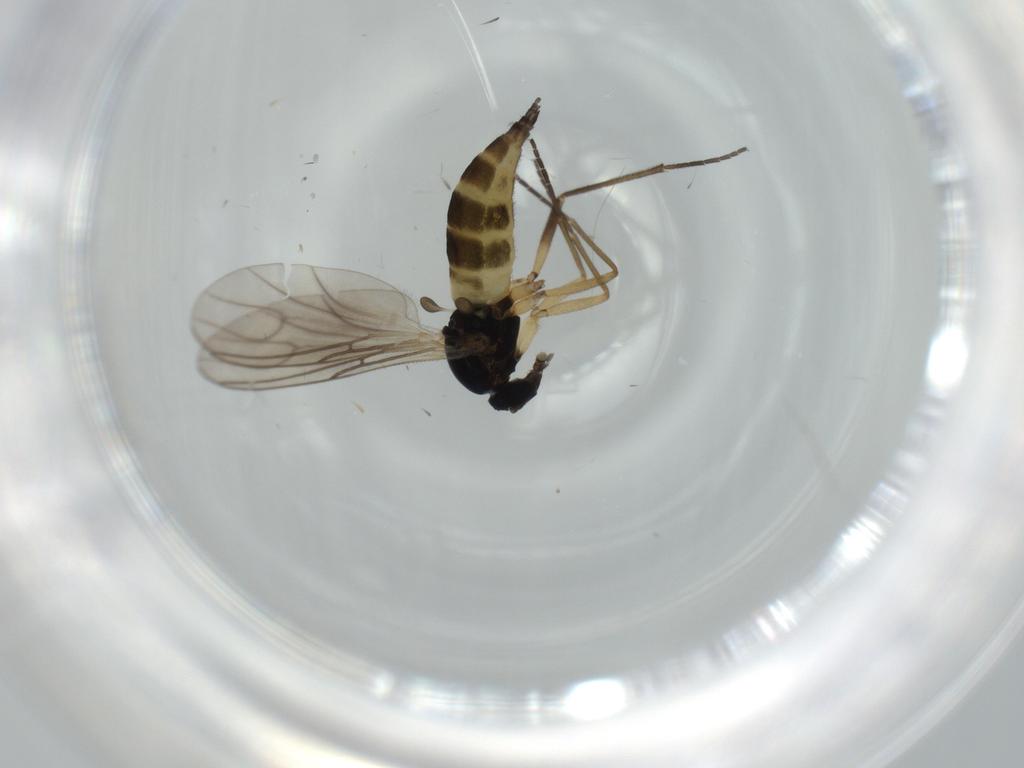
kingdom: Animalia
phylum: Arthropoda
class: Insecta
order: Diptera
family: Sciaridae
